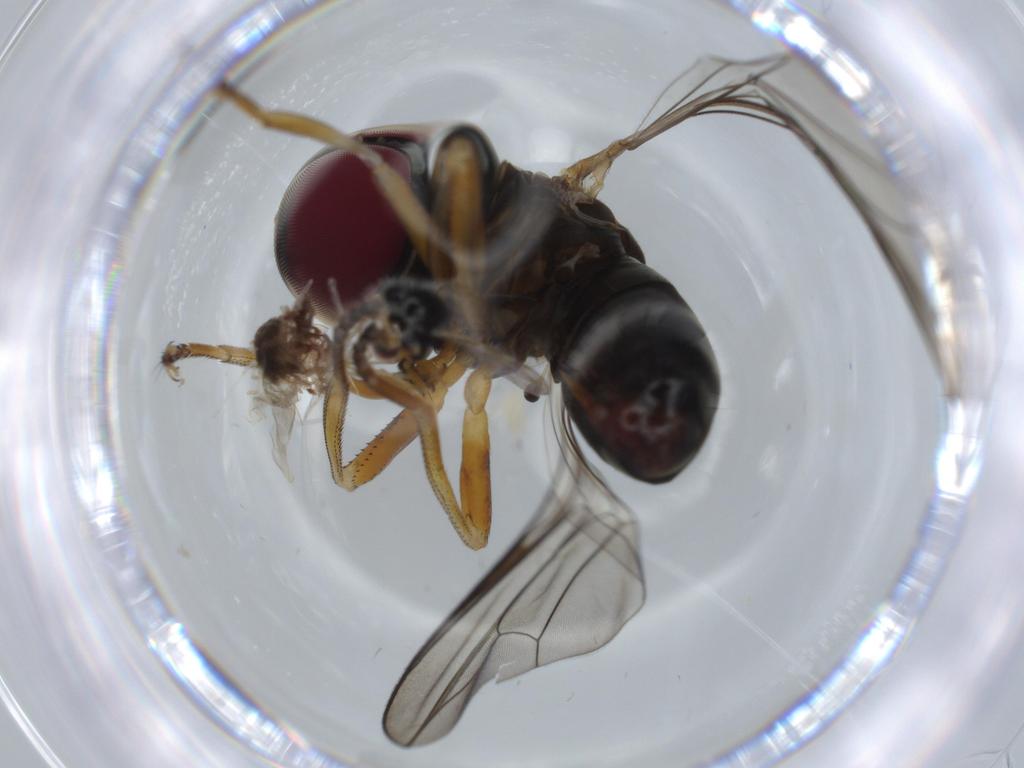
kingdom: Animalia
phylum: Arthropoda
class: Insecta
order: Diptera
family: Pipunculidae
